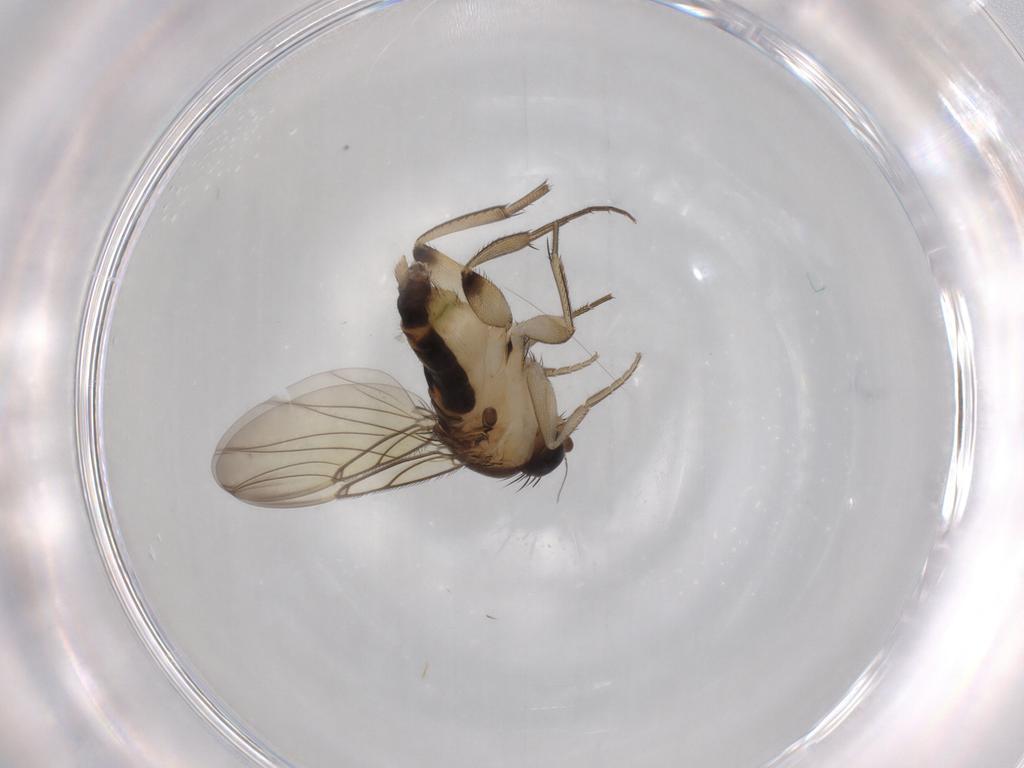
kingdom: Animalia
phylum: Arthropoda
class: Insecta
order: Diptera
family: Phoridae
